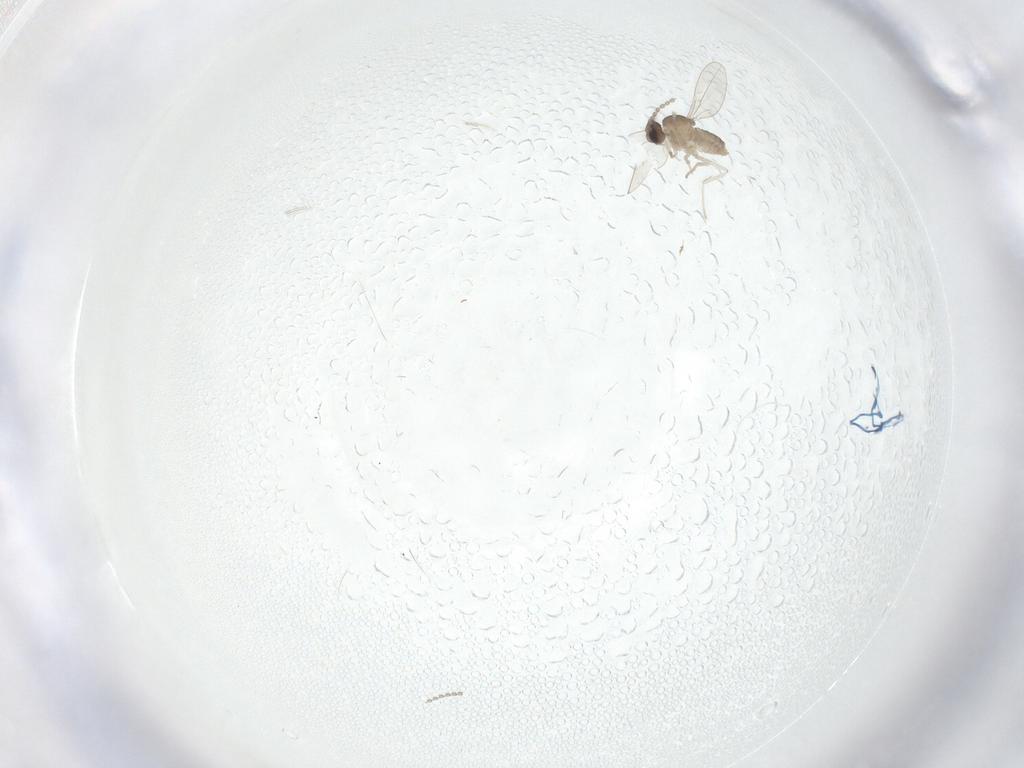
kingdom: Animalia
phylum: Arthropoda
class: Insecta
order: Diptera
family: Cecidomyiidae
